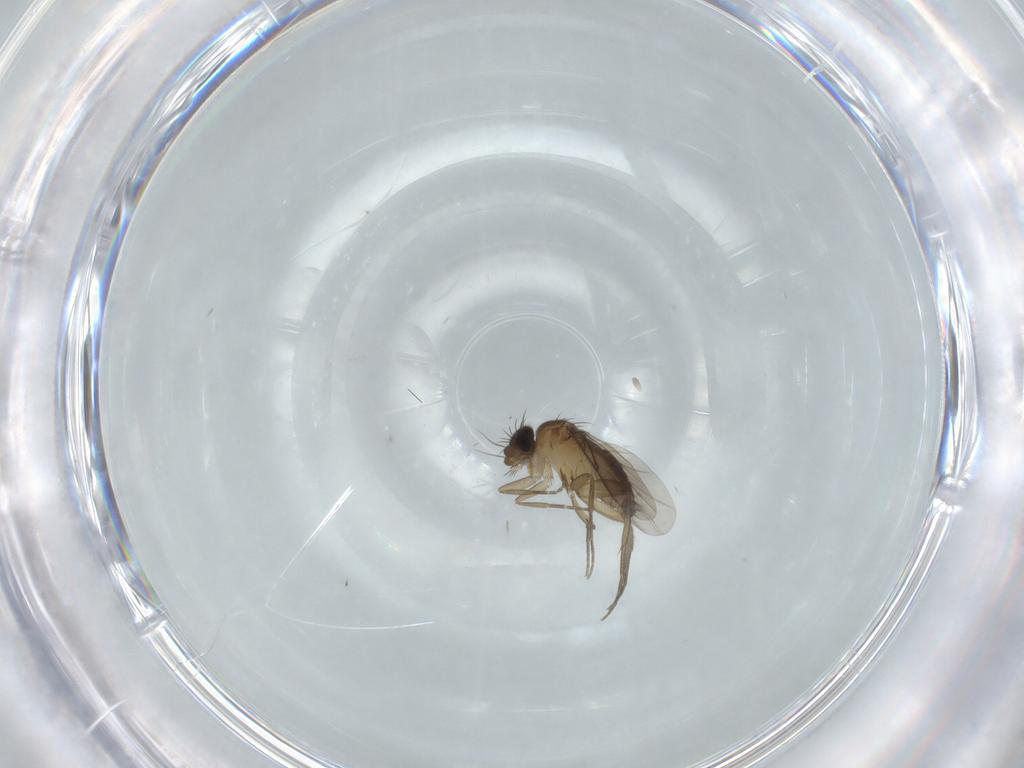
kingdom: Animalia
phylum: Arthropoda
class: Insecta
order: Diptera
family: Phoridae
